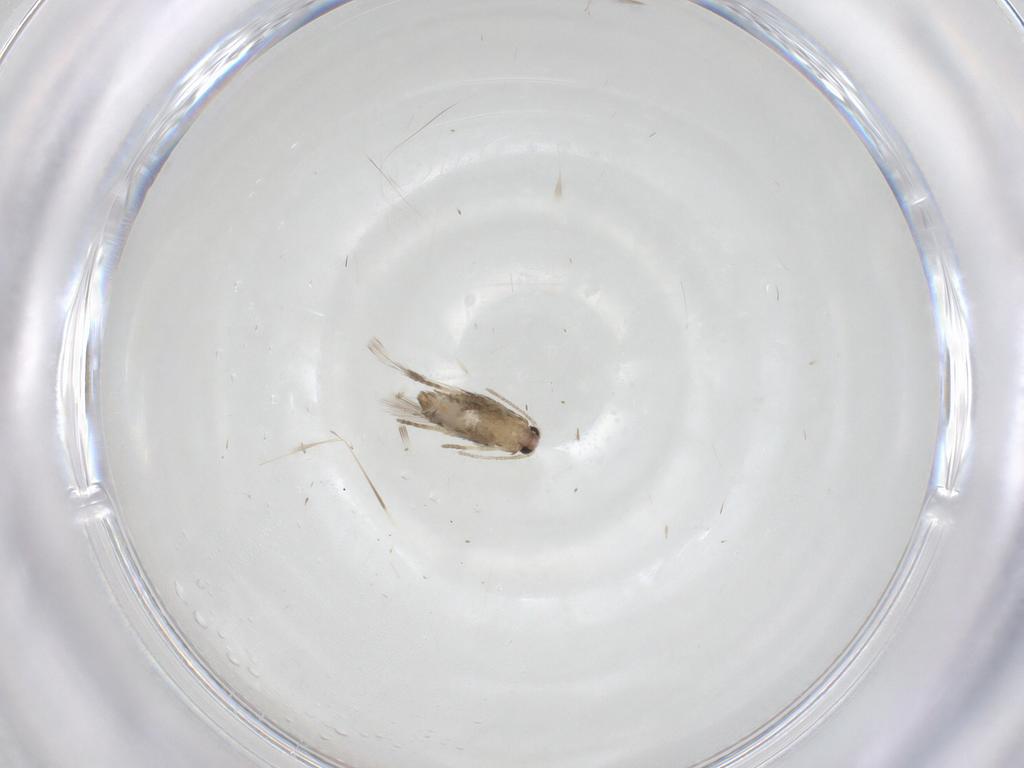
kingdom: Animalia
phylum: Arthropoda
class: Insecta
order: Lepidoptera
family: Nepticulidae
